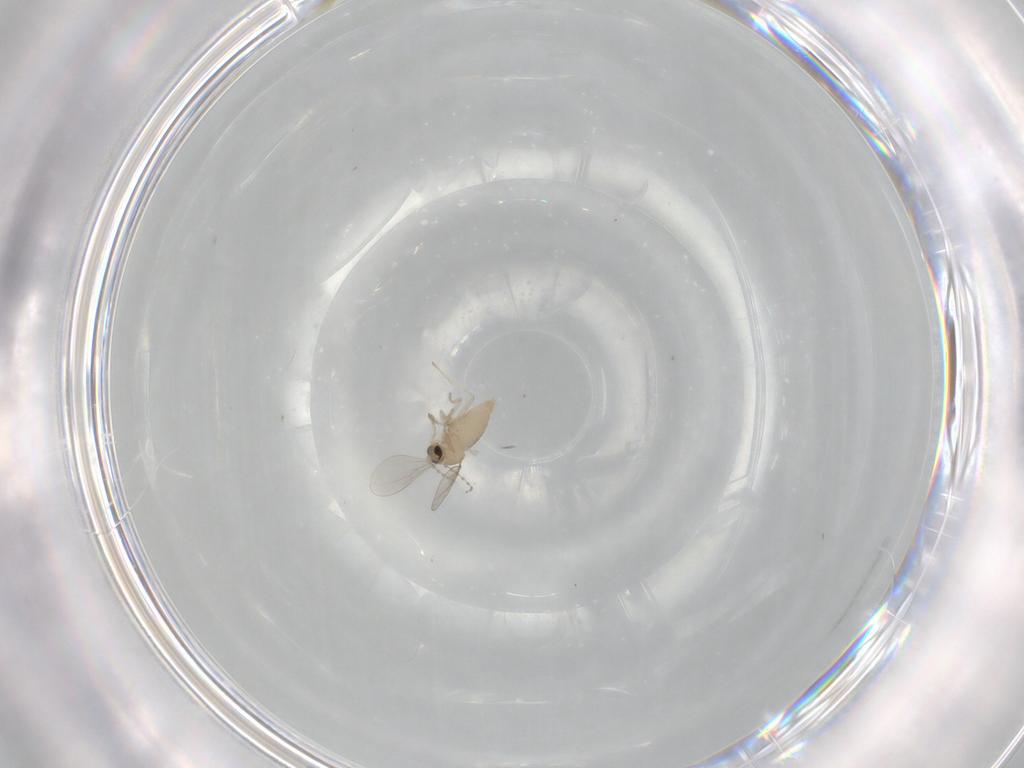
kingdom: Animalia
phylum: Arthropoda
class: Insecta
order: Diptera
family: Cecidomyiidae
